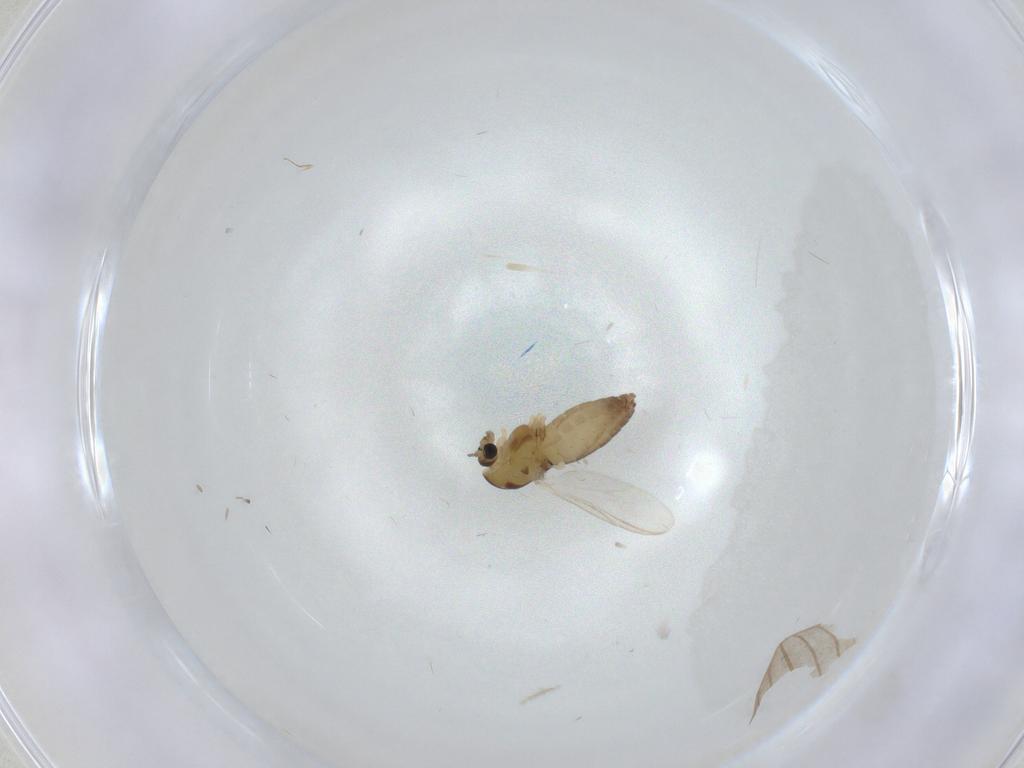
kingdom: Animalia
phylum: Arthropoda
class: Insecta
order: Diptera
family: Chironomidae
